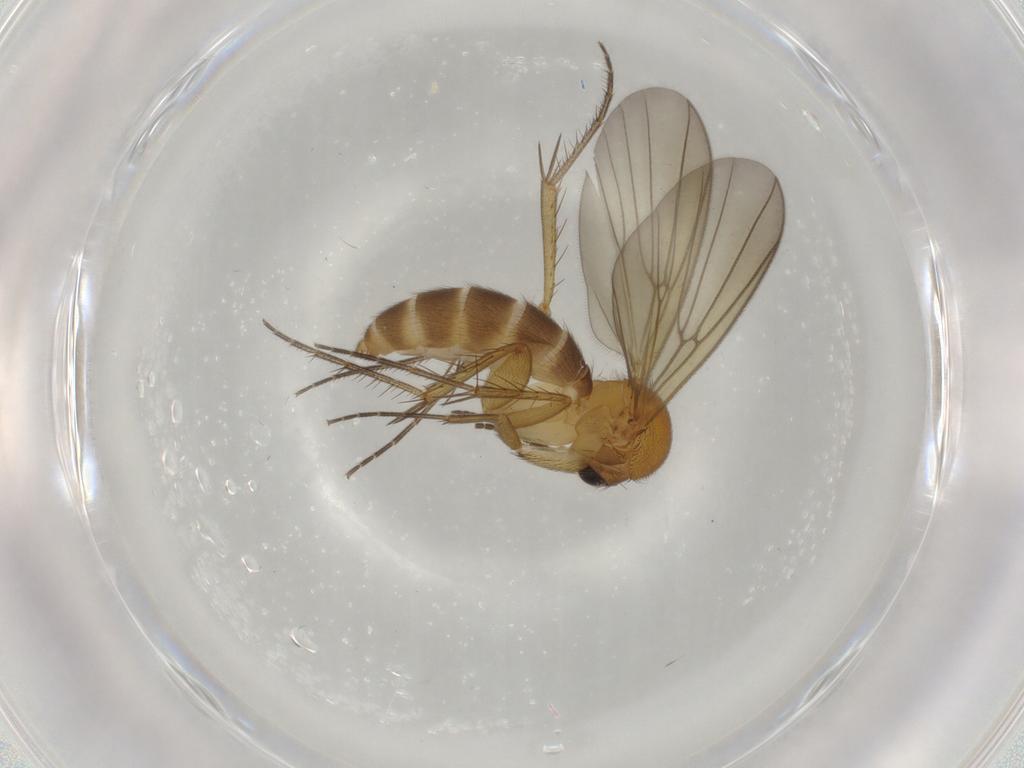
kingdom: Animalia
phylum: Arthropoda
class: Insecta
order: Diptera
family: Mycetophilidae
